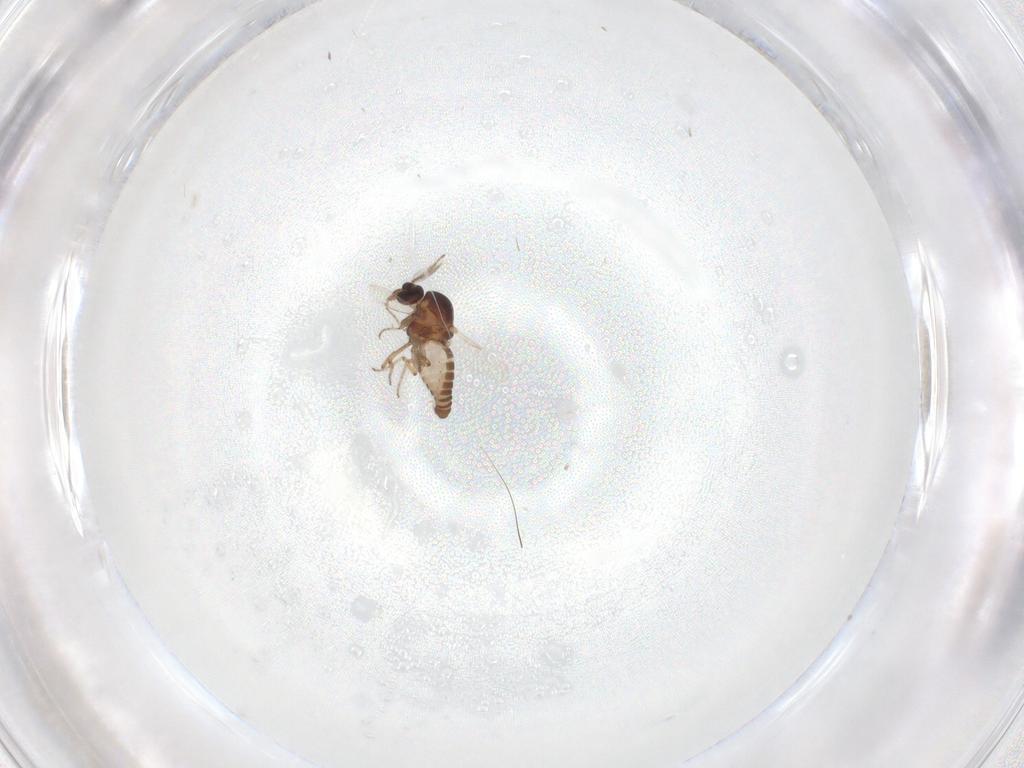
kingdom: Animalia
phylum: Arthropoda
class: Insecta
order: Diptera
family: Ceratopogonidae
